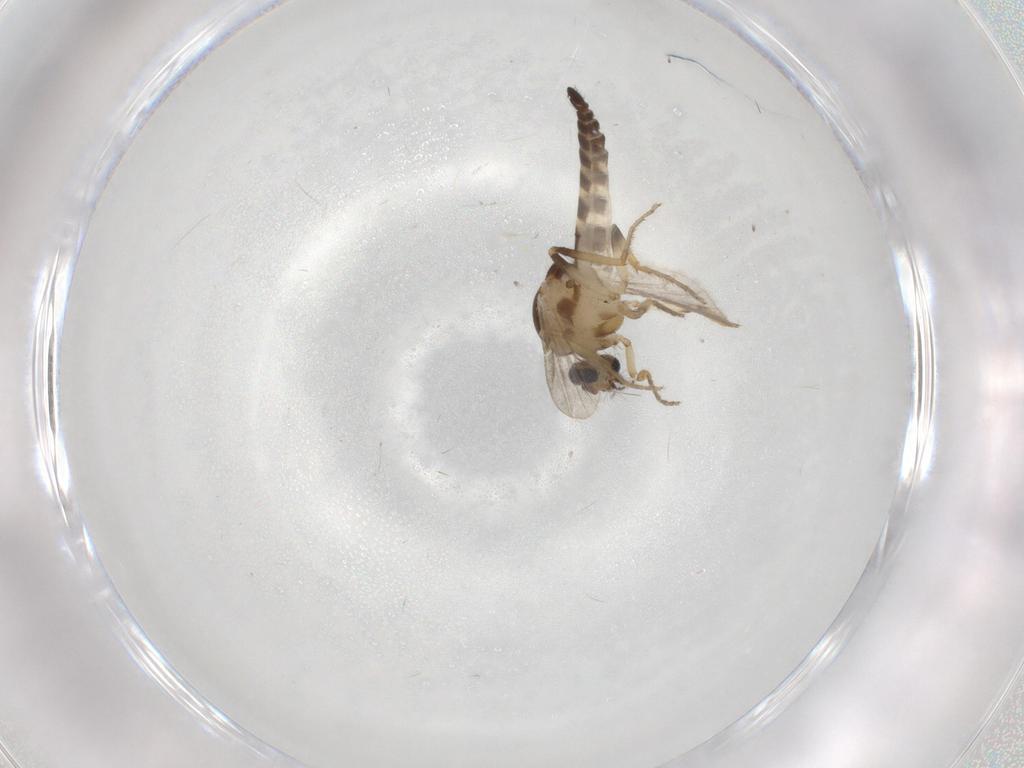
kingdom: Animalia
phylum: Arthropoda
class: Insecta
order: Diptera
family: Ceratopogonidae
